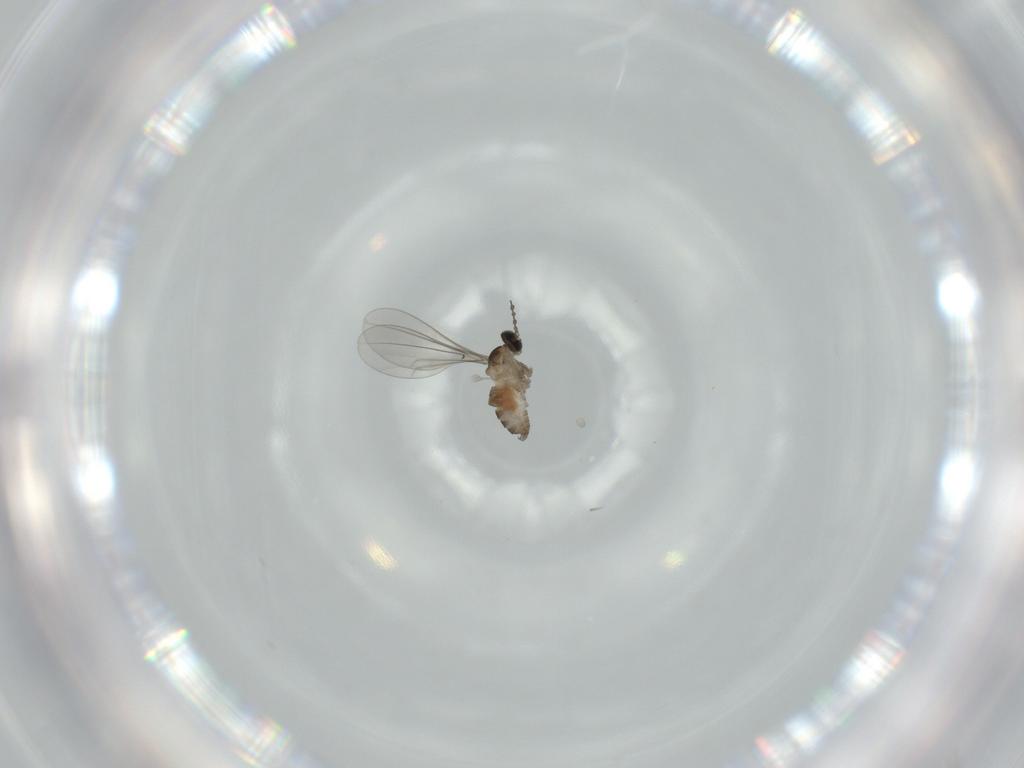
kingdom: Animalia
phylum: Arthropoda
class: Insecta
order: Diptera
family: Cecidomyiidae
